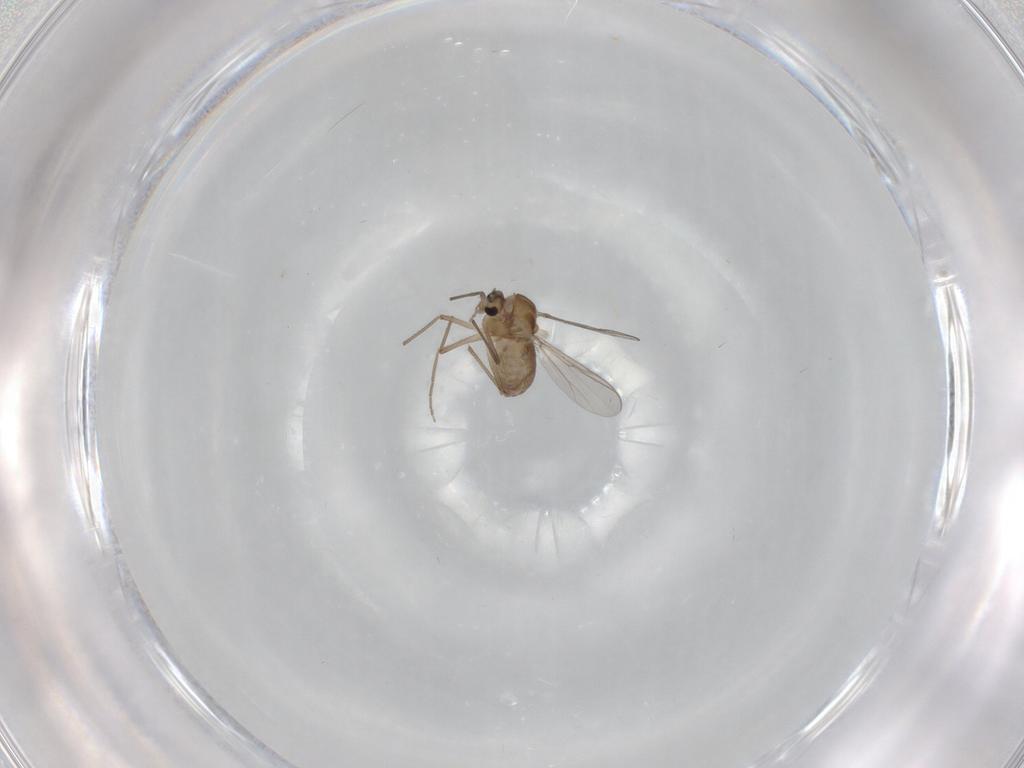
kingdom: Animalia
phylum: Arthropoda
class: Insecta
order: Diptera
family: Chironomidae
